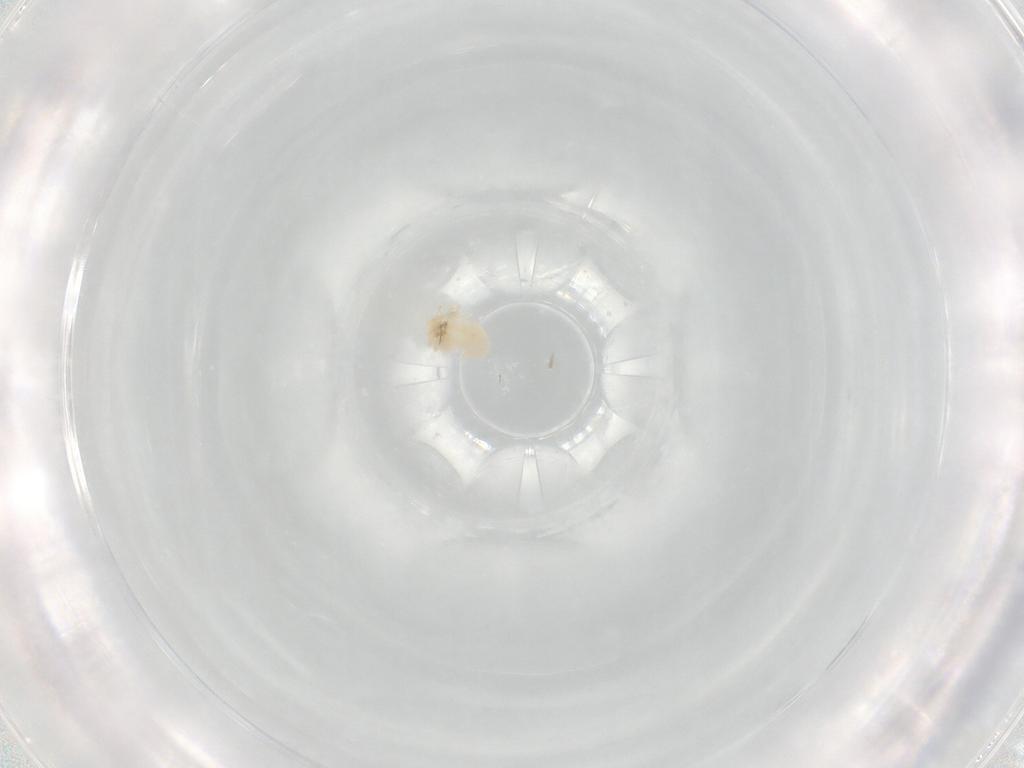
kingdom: Animalia
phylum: Arthropoda
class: Arachnida
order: Trombidiformes
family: Anystidae
